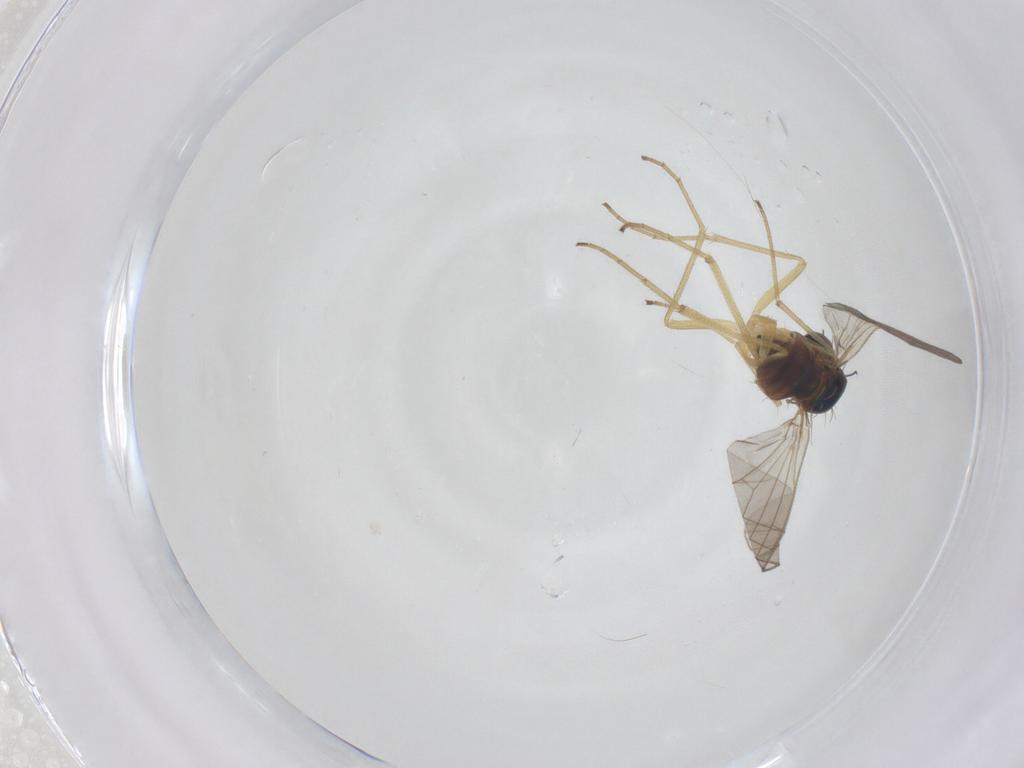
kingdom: Animalia
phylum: Arthropoda
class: Insecta
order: Diptera
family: Dolichopodidae
